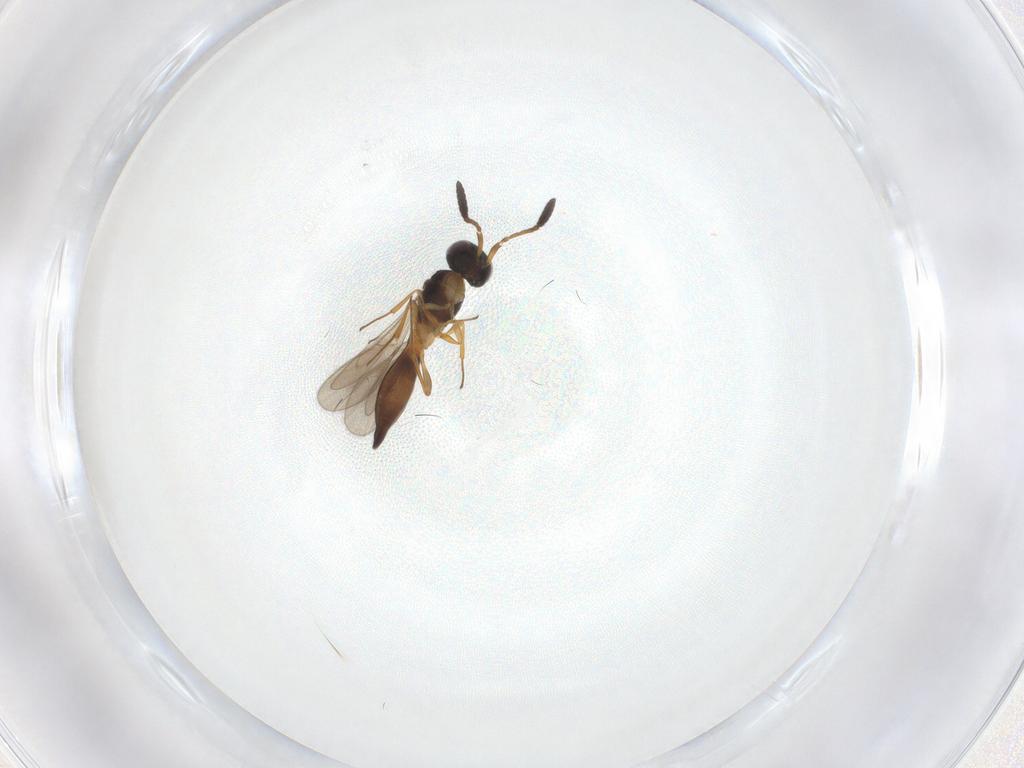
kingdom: Animalia
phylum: Arthropoda
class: Insecta
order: Hymenoptera
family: Scelionidae
